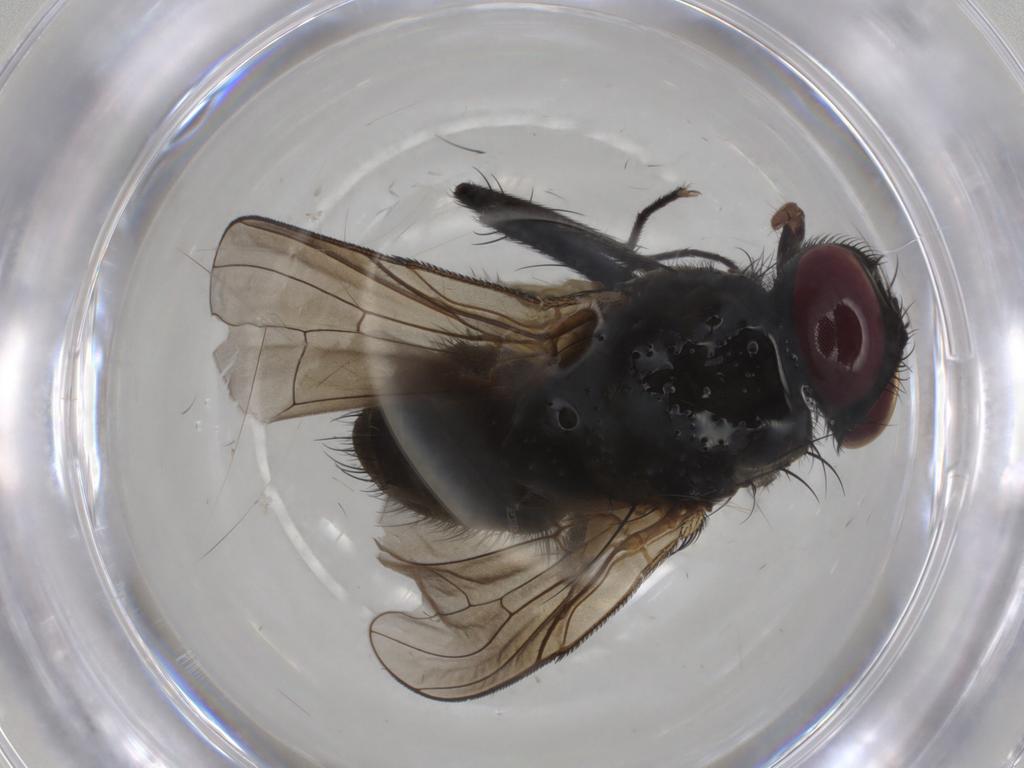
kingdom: Animalia
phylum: Arthropoda
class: Insecta
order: Diptera
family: Muscidae
